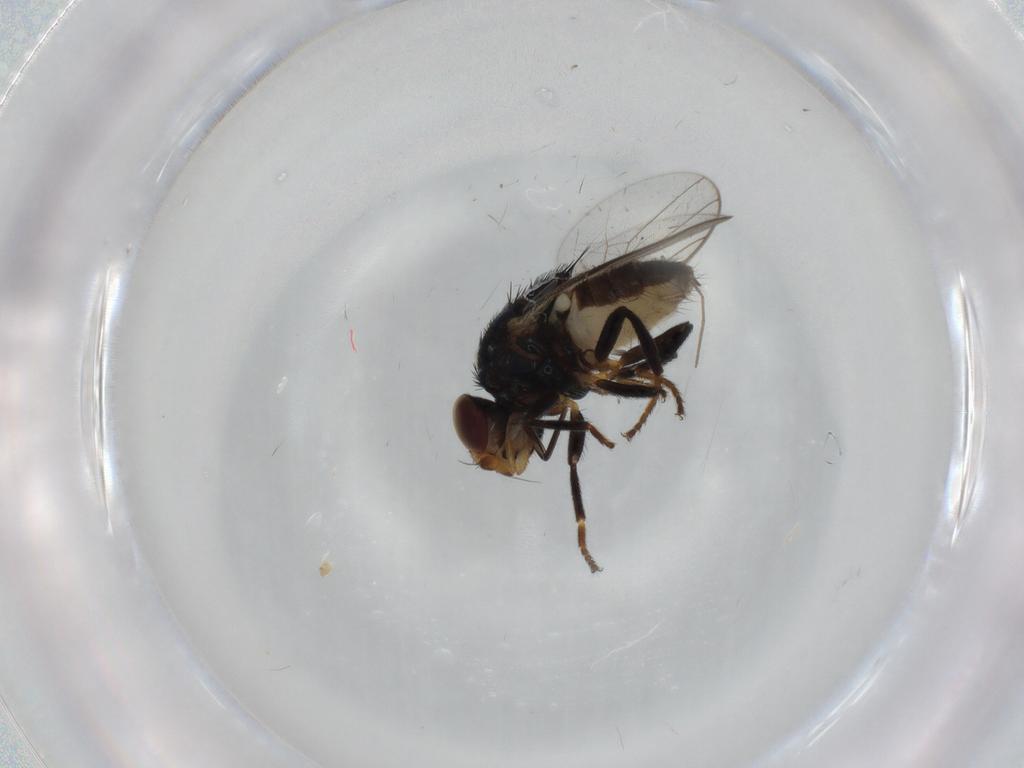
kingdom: Animalia
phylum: Arthropoda
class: Insecta
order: Diptera
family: Chloropidae
